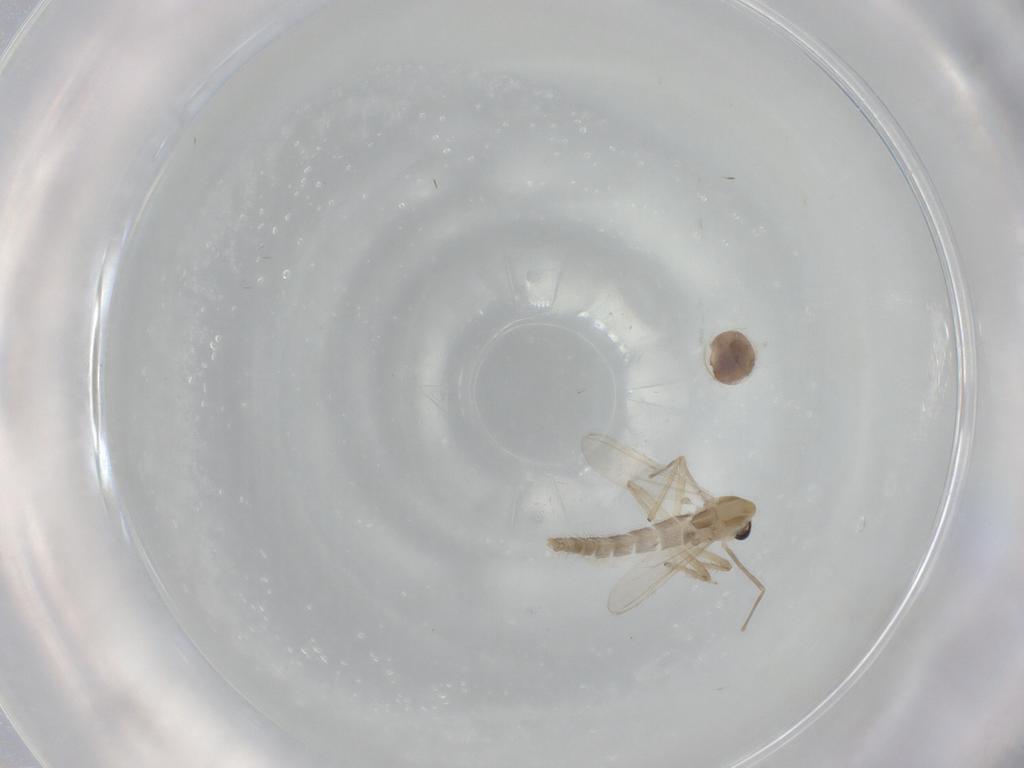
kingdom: Animalia
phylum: Arthropoda
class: Insecta
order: Diptera
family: Chironomidae
